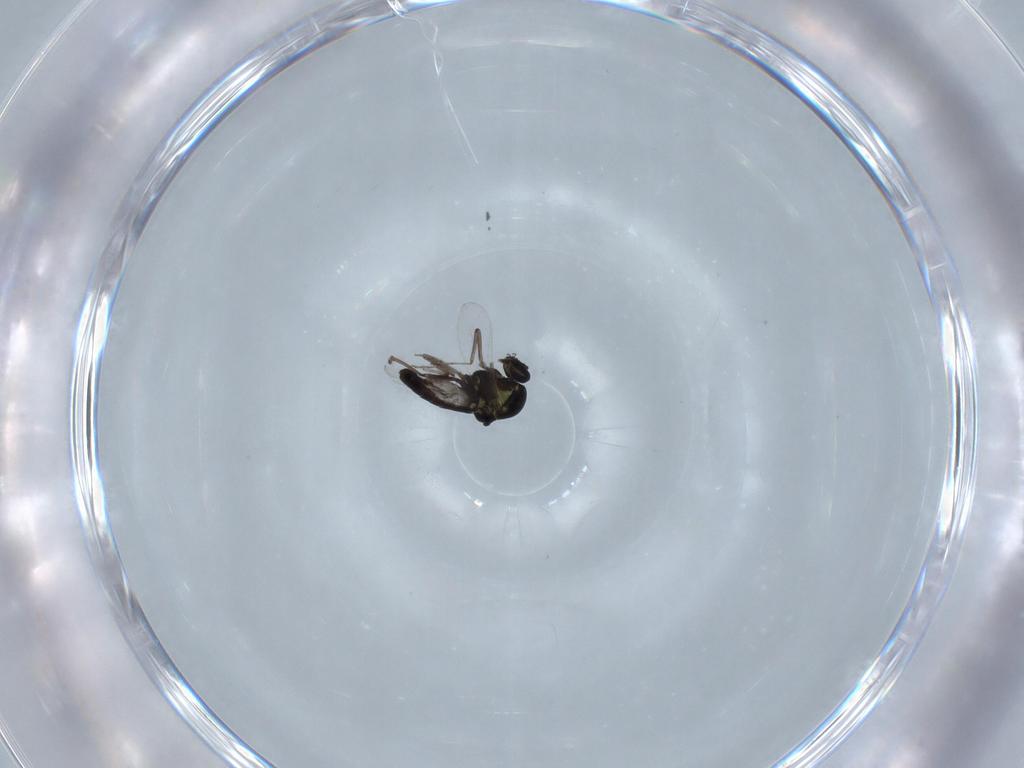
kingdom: Animalia
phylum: Arthropoda
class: Insecta
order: Diptera
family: Ceratopogonidae
